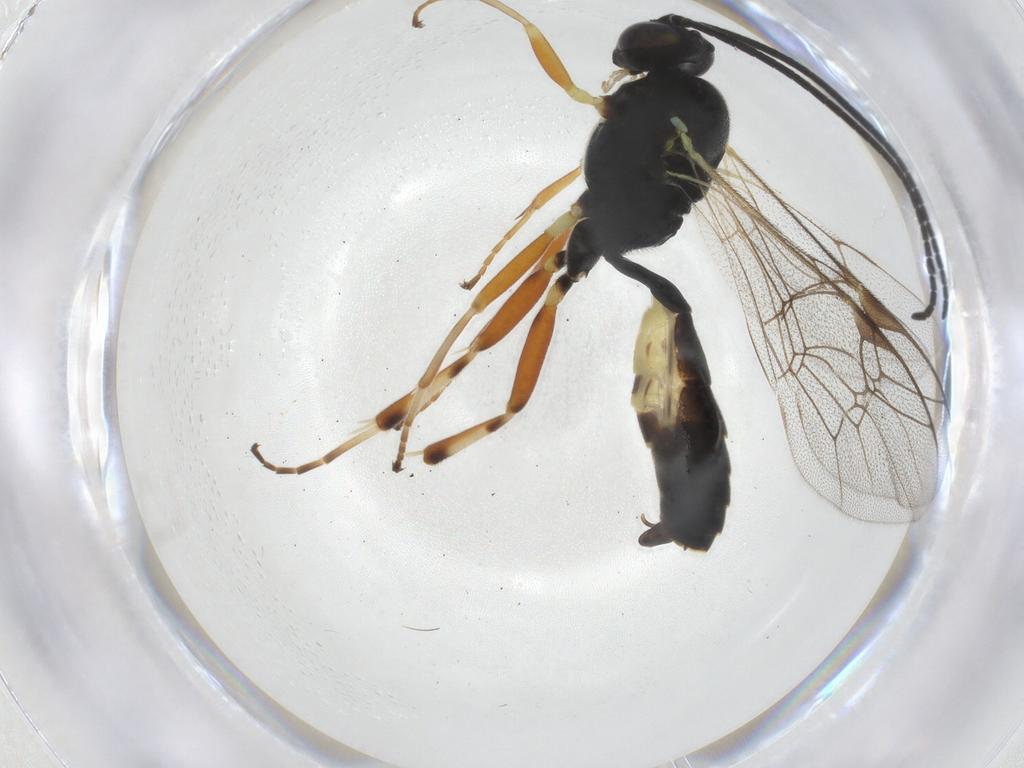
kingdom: Animalia
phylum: Arthropoda
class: Insecta
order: Hymenoptera
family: Ichneumonidae
